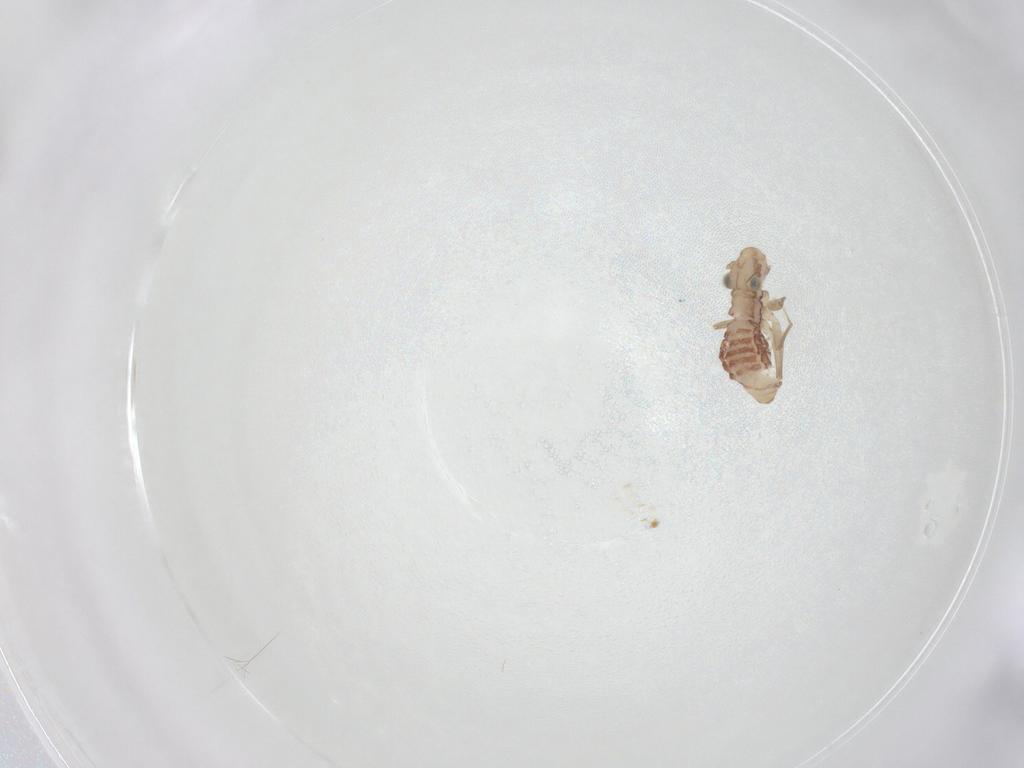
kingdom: Animalia
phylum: Arthropoda
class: Insecta
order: Psocodea
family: Lepidopsocidae
